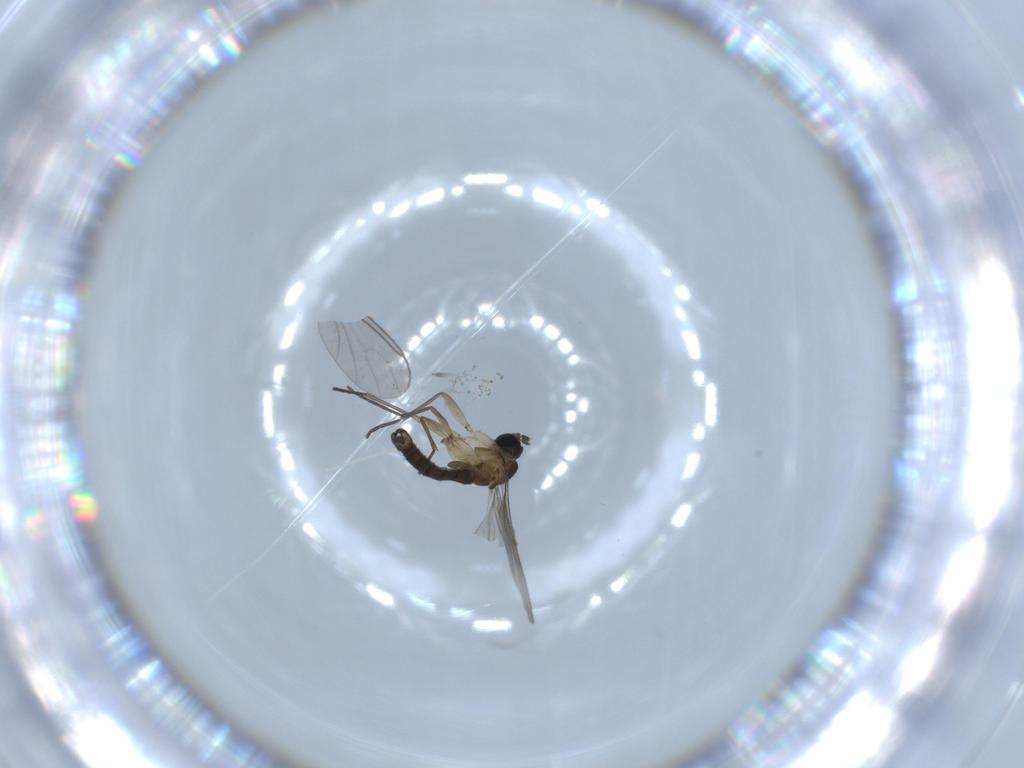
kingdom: Animalia
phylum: Arthropoda
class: Insecta
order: Diptera
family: Sciaridae
